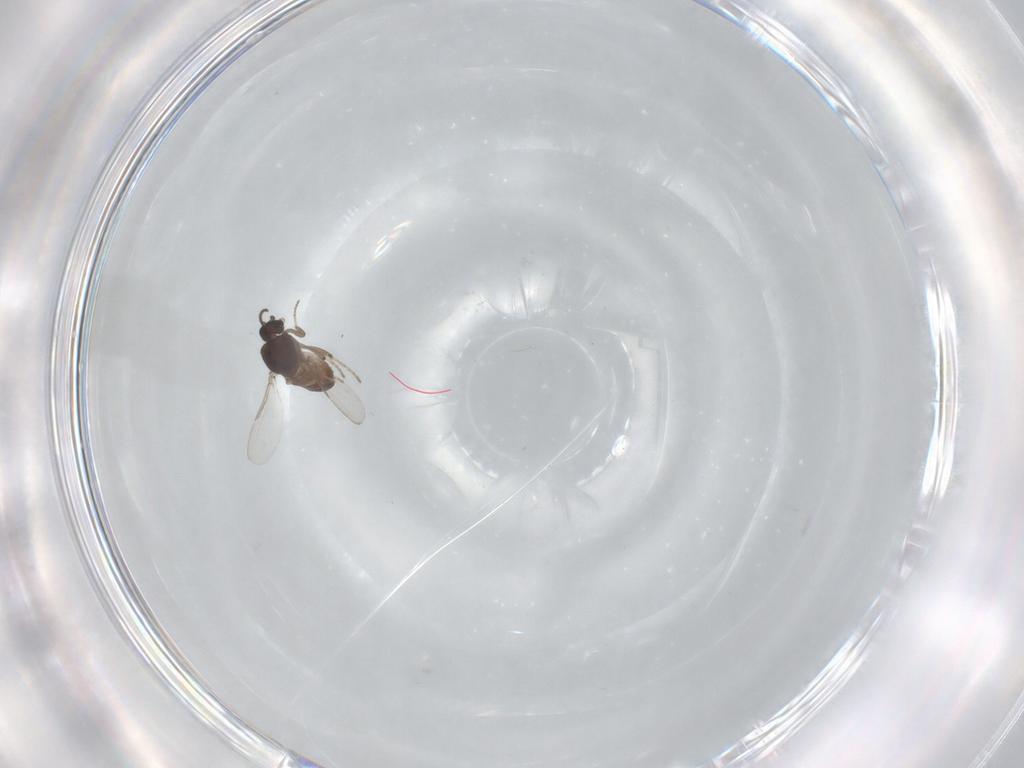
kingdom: Animalia
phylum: Arthropoda
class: Insecta
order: Diptera
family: Ceratopogonidae
